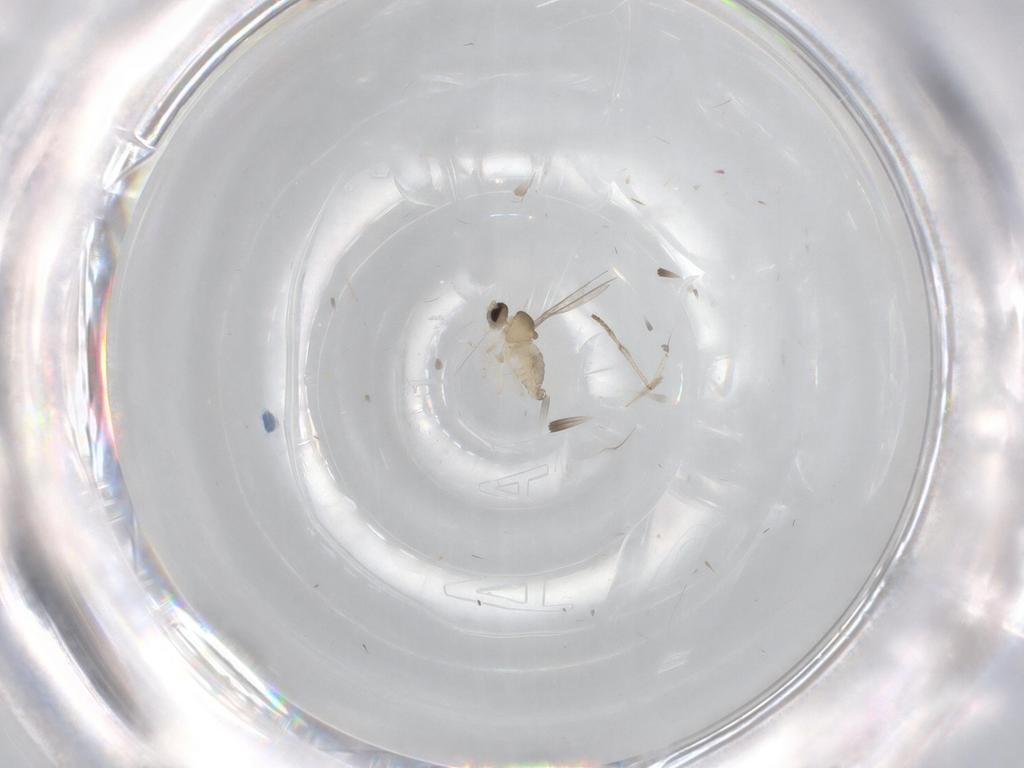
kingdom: Animalia
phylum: Arthropoda
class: Insecta
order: Diptera
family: Cecidomyiidae
